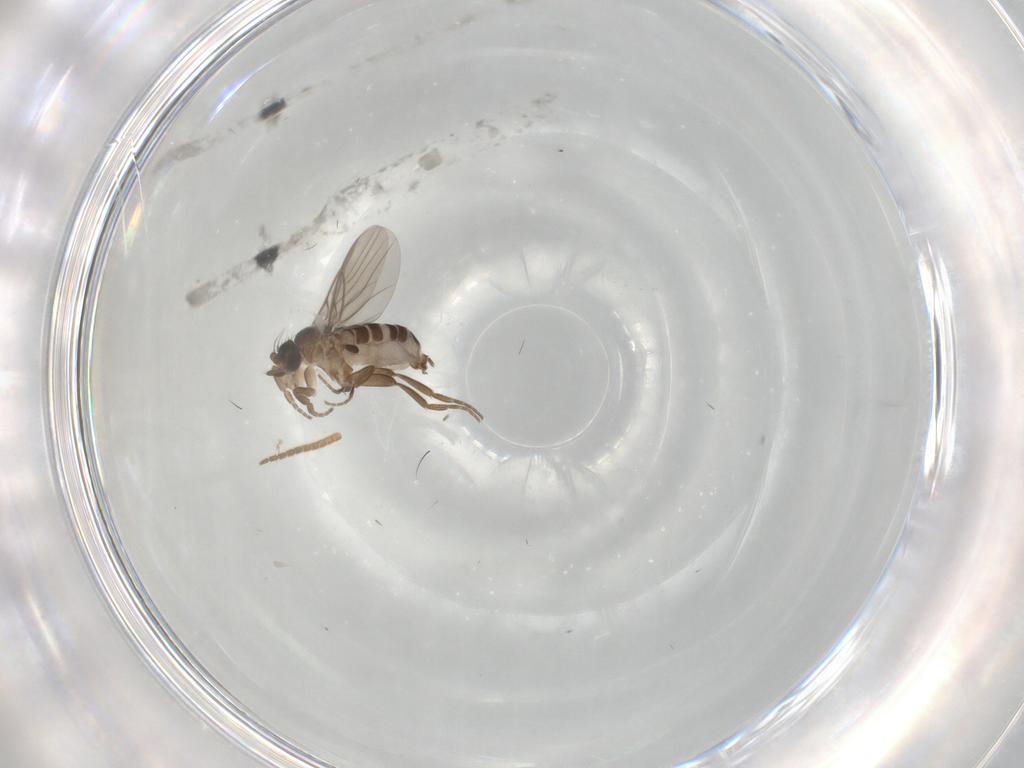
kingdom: Animalia
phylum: Arthropoda
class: Insecta
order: Diptera
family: Phoridae
